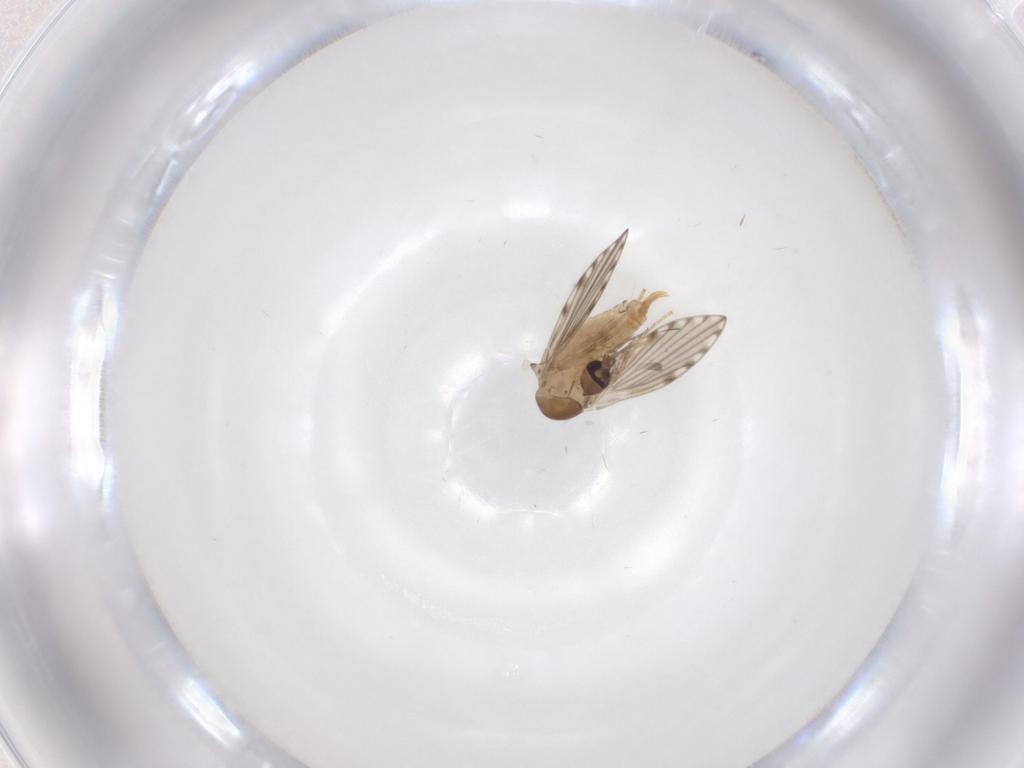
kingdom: Animalia
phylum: Arthropoda
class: Insecta
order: Diptera
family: Psychodidae
